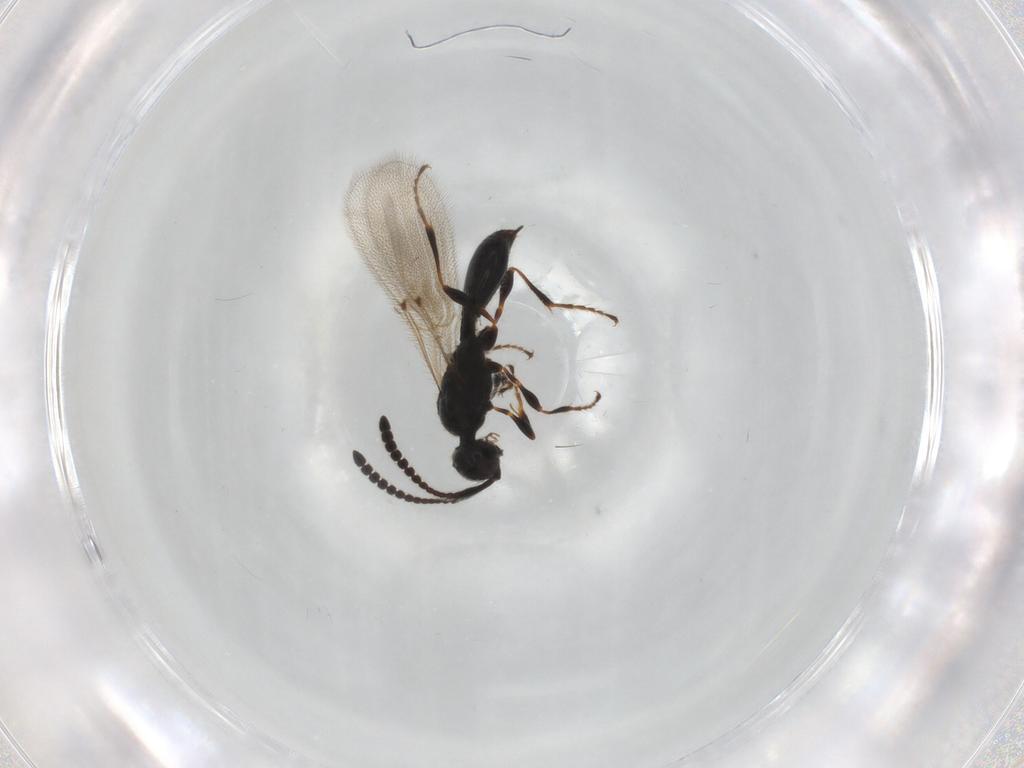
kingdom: Animalia
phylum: Arthropoda
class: Insecta
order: Hymenoptera
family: Diapriidae
